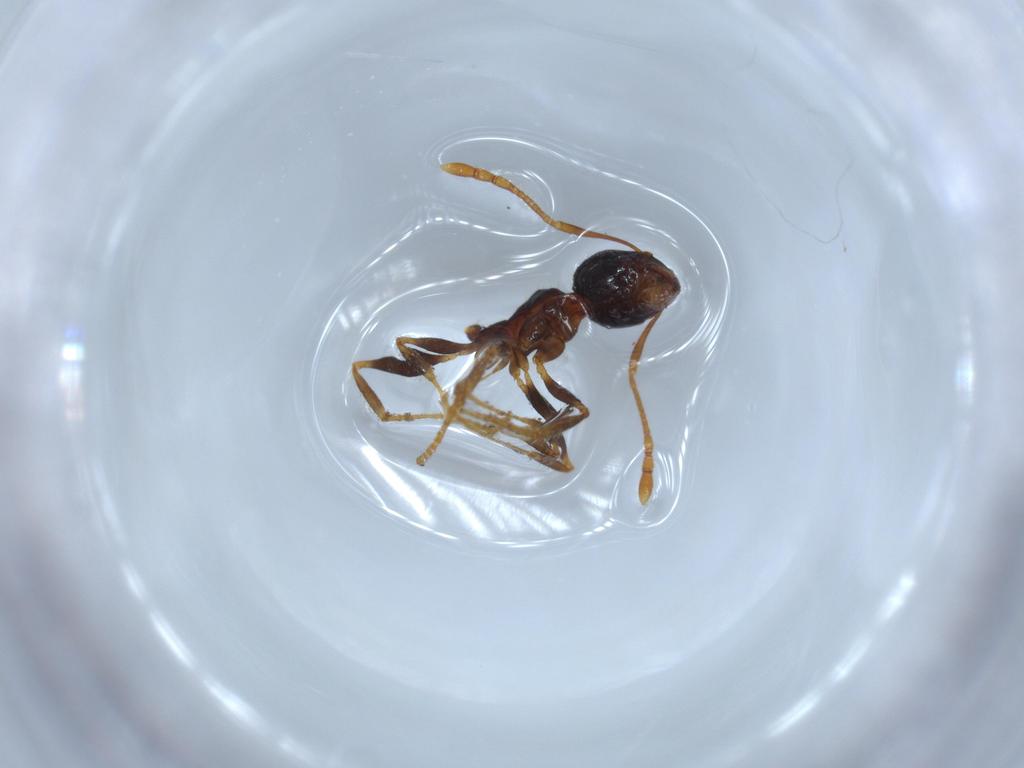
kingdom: Animalia
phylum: Arthropoda
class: Insecta
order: Hymenoptera
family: Formicidae
